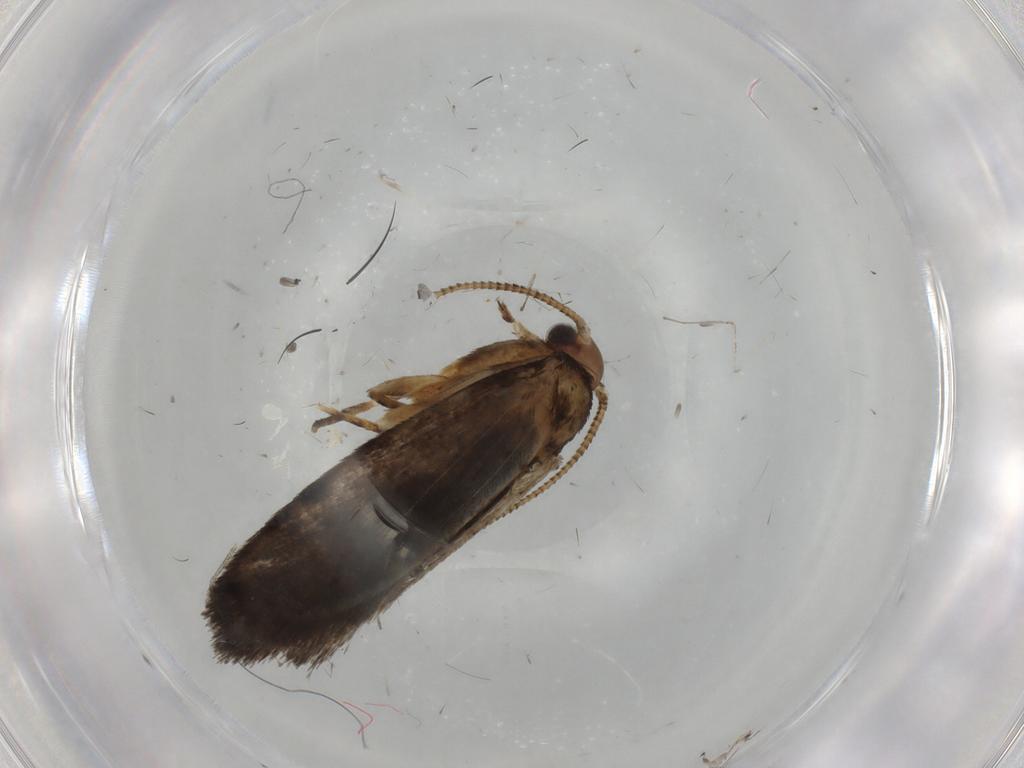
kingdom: Animalia
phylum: Arthropoda
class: Insecta
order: Lepidoptera
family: Tineidae
